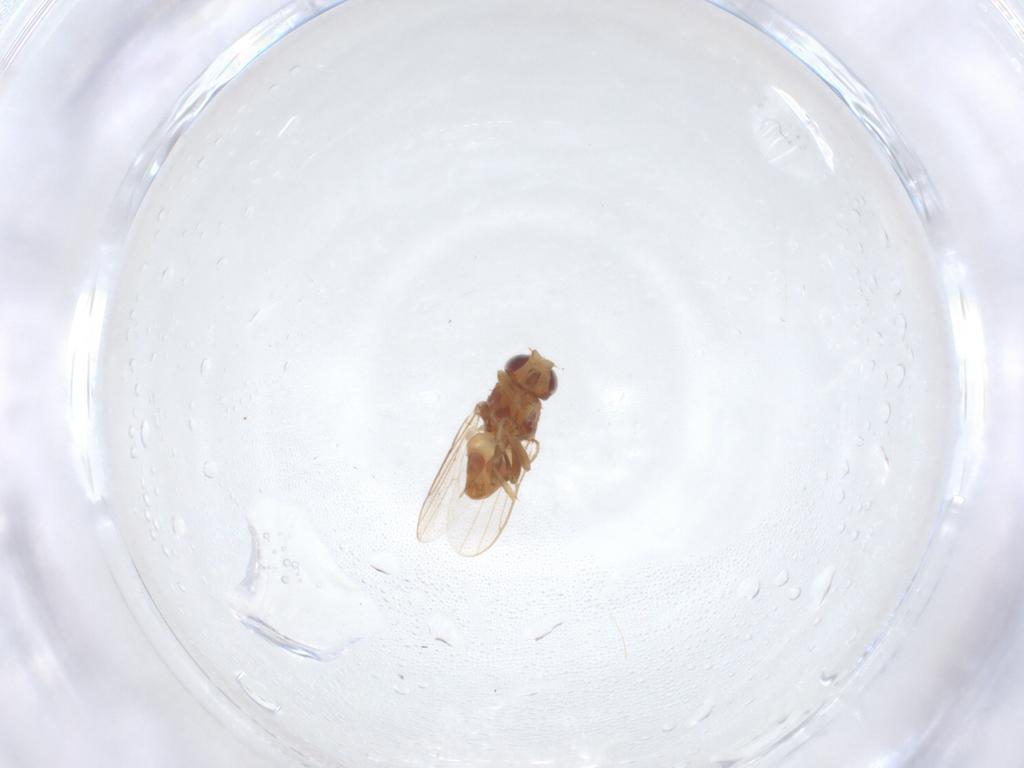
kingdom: Animalia
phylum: Arthropoda
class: Insecta
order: Diptera
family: Chloropidae
